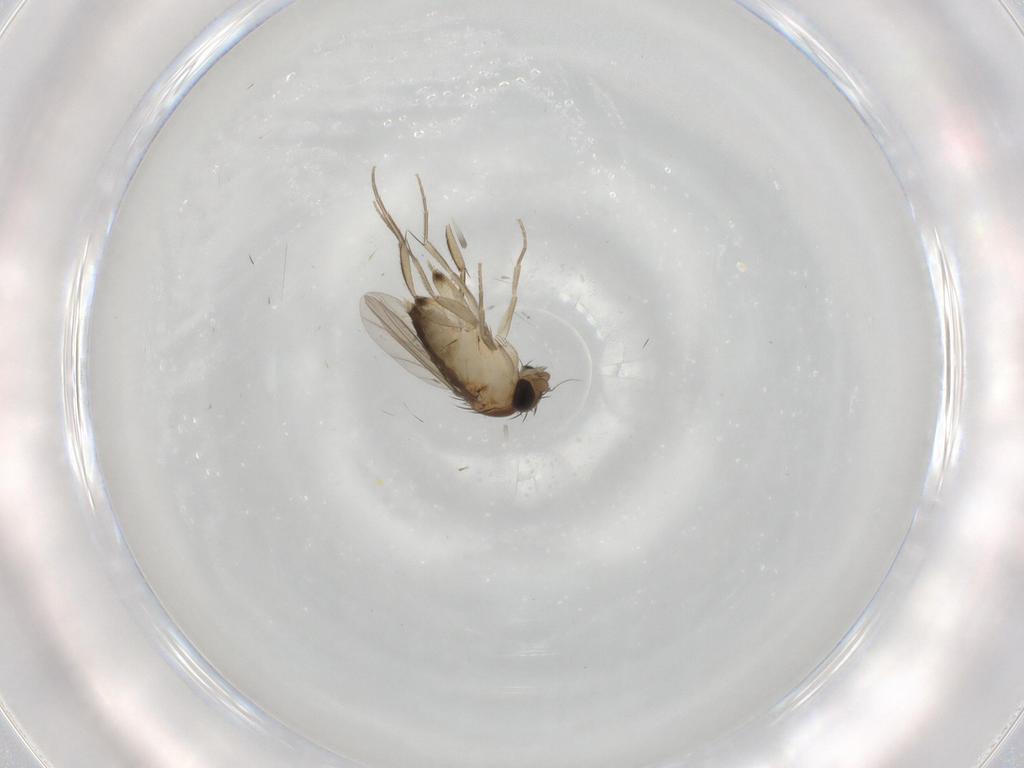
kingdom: Animalia
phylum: Arthropoda
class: Insecta
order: Diptera
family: Phoridae
